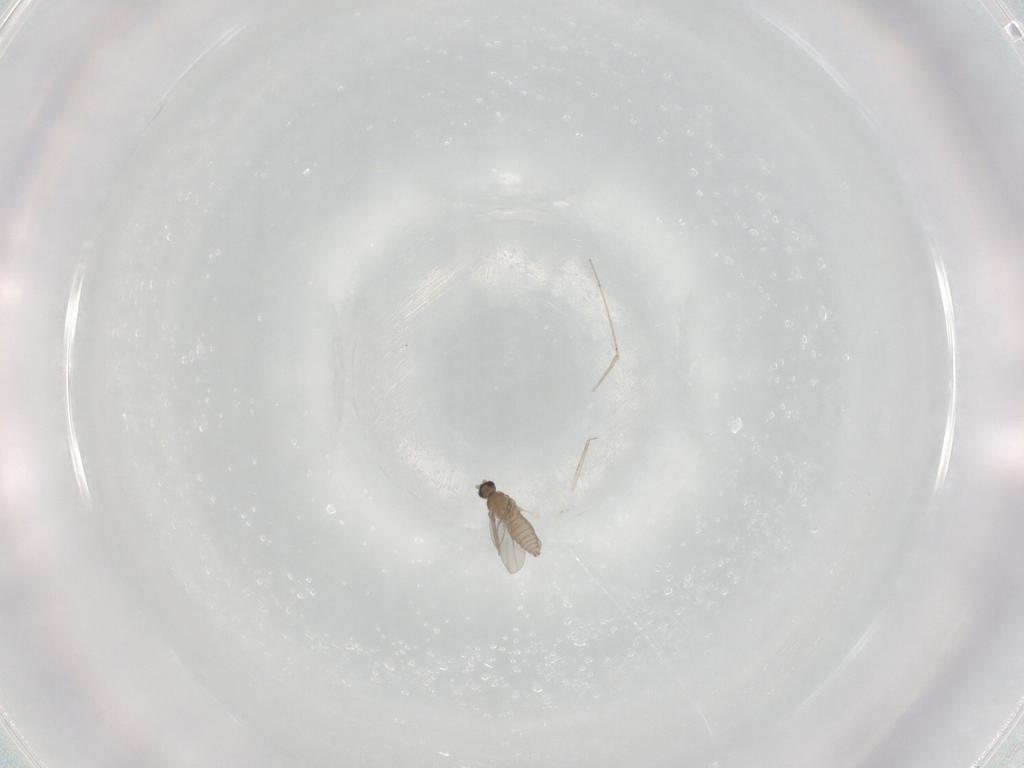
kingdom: Animalia
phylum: Arthropoda
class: Insecta
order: Diptera
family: Cecidomyiidae
